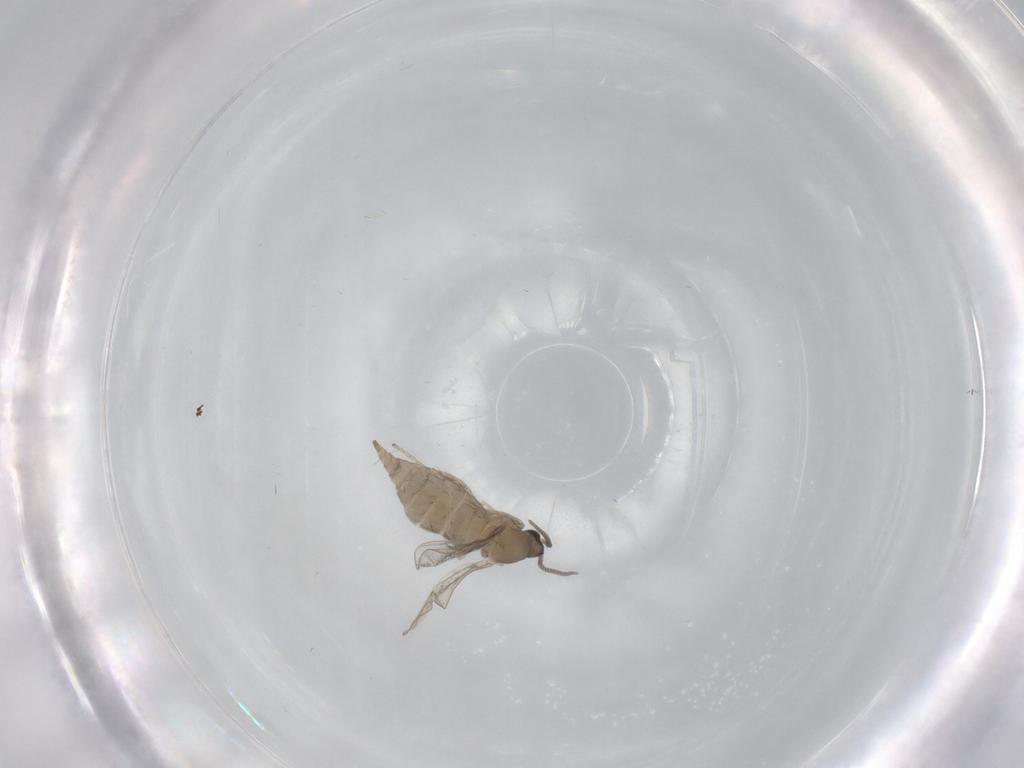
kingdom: Animalia
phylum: Arthropoda
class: Insecta
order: Diptera
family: Cecidomyiidae
